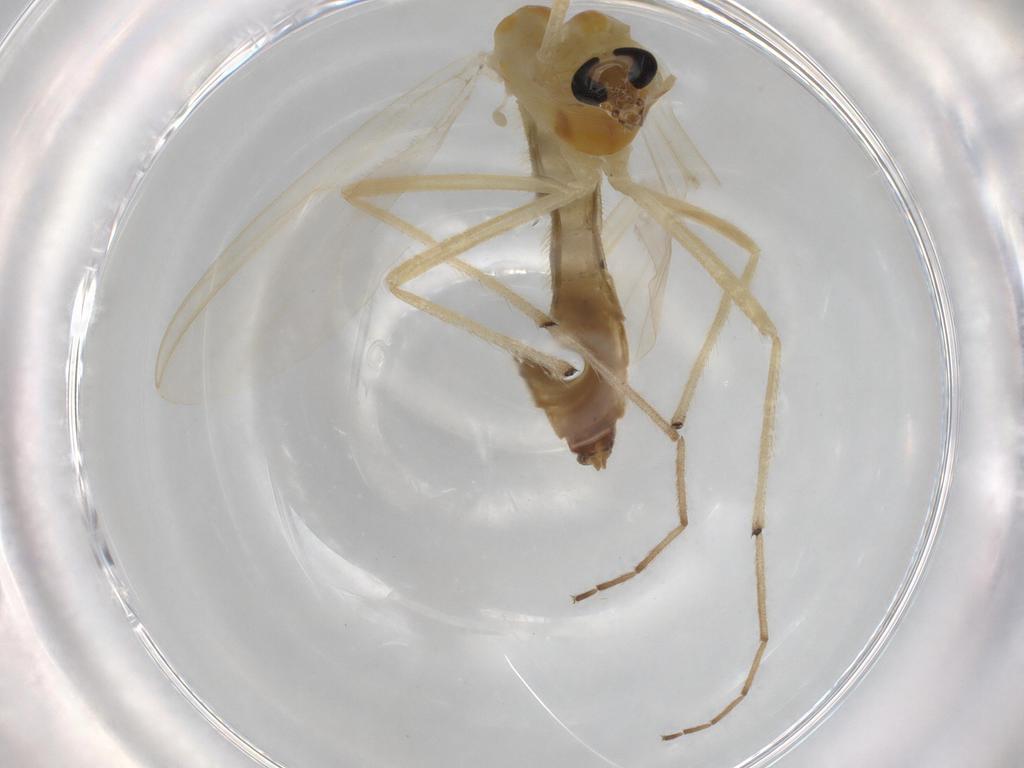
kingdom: Animalia
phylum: Arthropoda
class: Insecta
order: Diptera
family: Chironomidae
